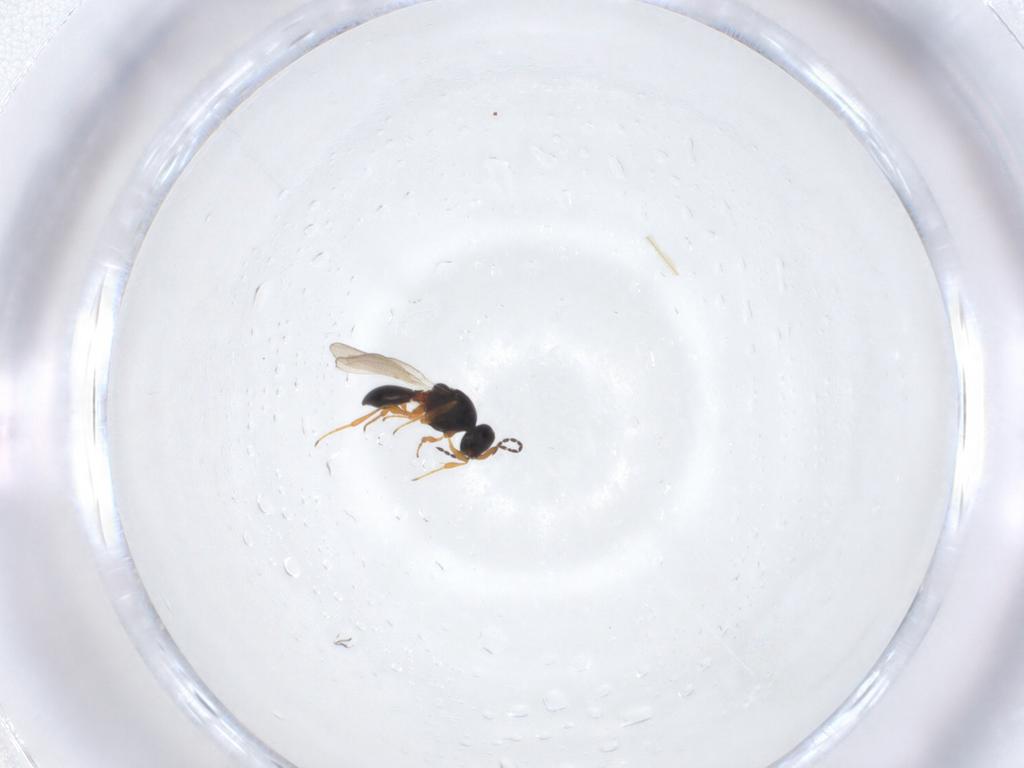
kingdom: Animalia
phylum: Arthropoda
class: Insecta
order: Hymenoptera
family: Platygastridae
